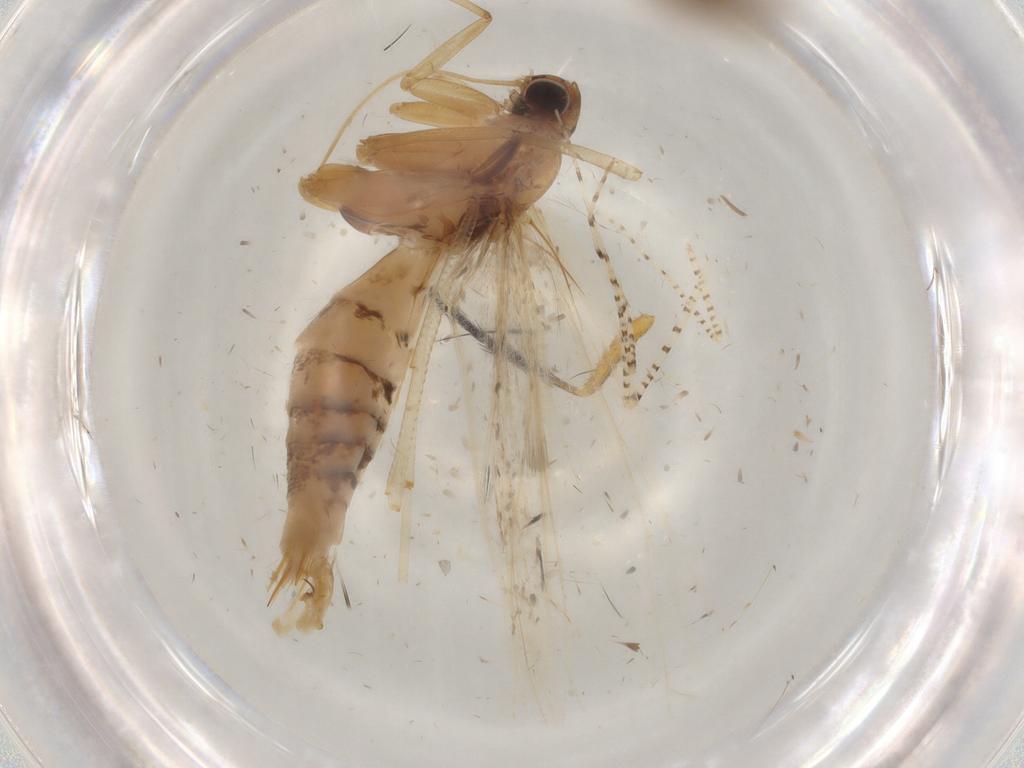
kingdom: Animalia
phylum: Arthropoda
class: Insecta
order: Lepidoptera
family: Gelechiidae
